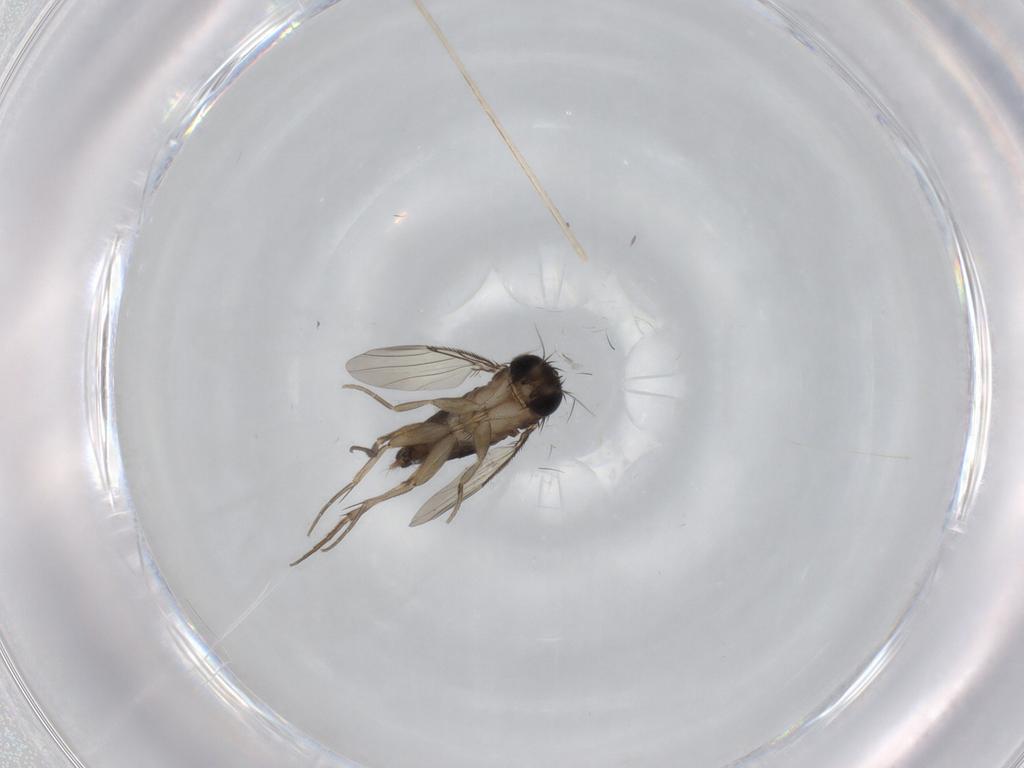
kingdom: Animalia
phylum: Arthropoda
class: Insecta
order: Diptera
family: Phoridae
